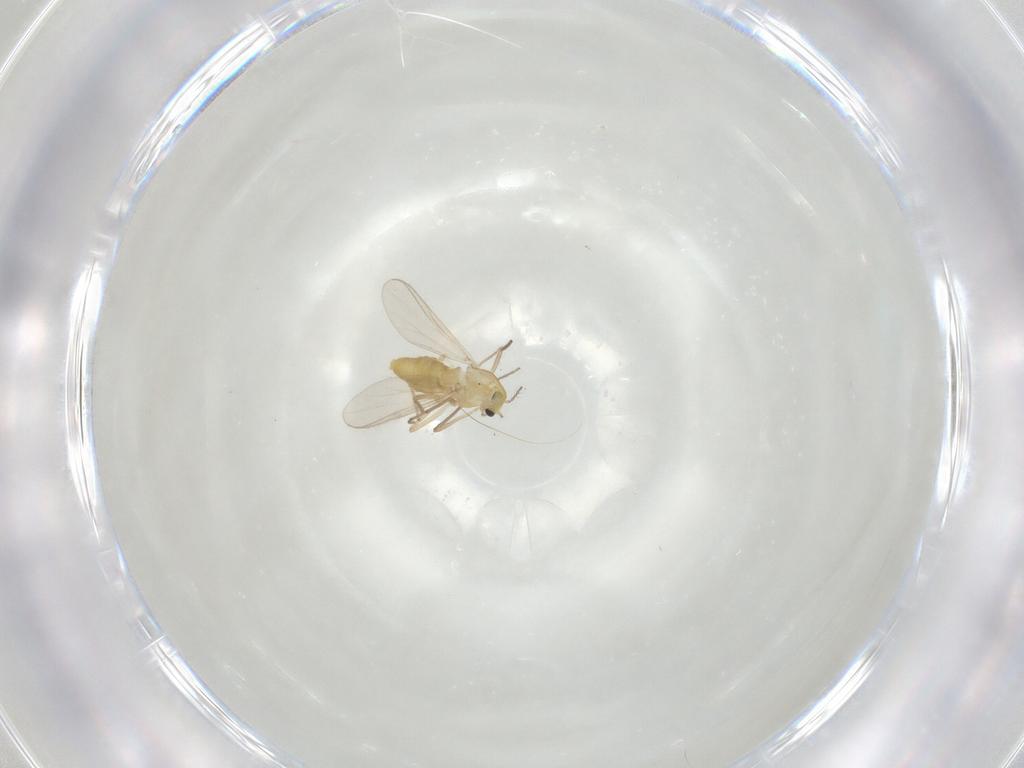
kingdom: Animalia
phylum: Arthropoda
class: Insecta
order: Diptera
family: Chironomidae
